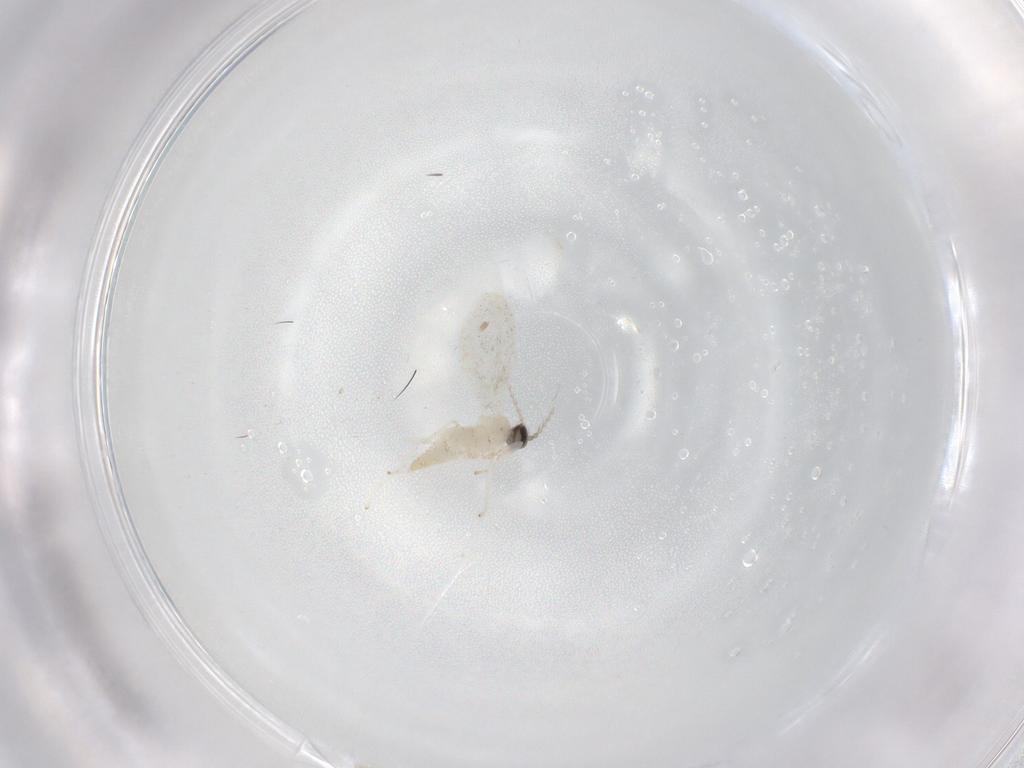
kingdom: Animalia
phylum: Arthropoda
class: Insecta
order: Diptera
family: Cecidomyiidae
